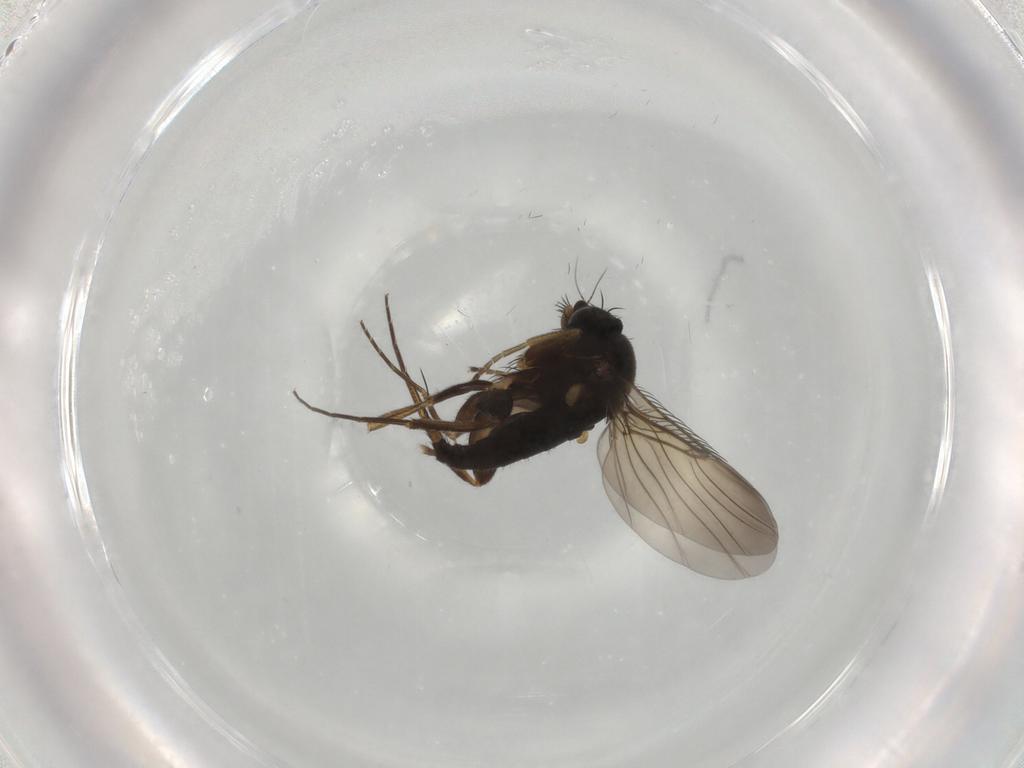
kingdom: Animalia
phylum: Arthropoda
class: Insecta
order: Diptera
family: Phoridae
